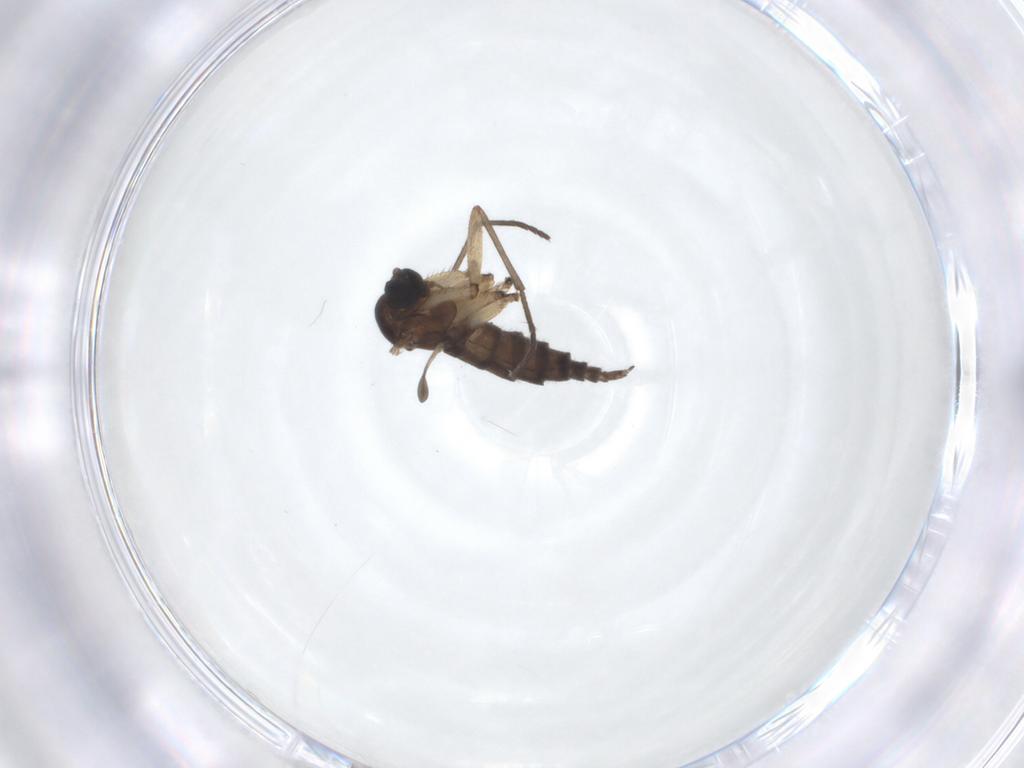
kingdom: Animalia
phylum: Arthropoda
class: Insecta
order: Diptera
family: Sciaridae
